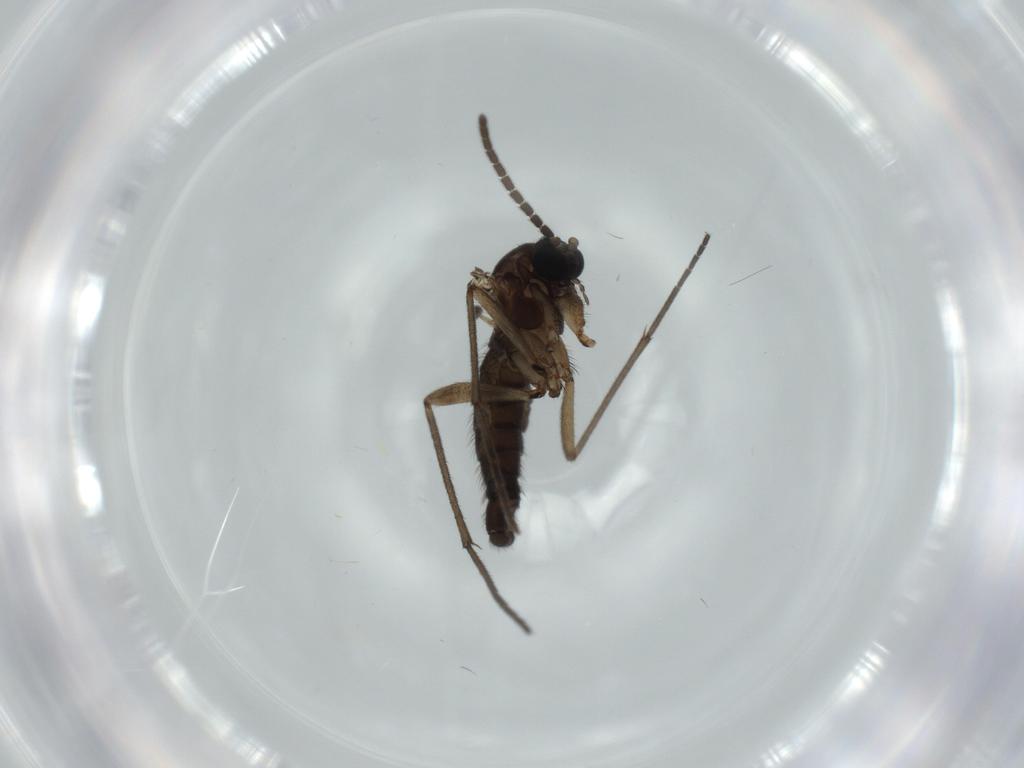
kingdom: Animalia
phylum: Arthropoda
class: Insecta
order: Diptera
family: Sciaridae
